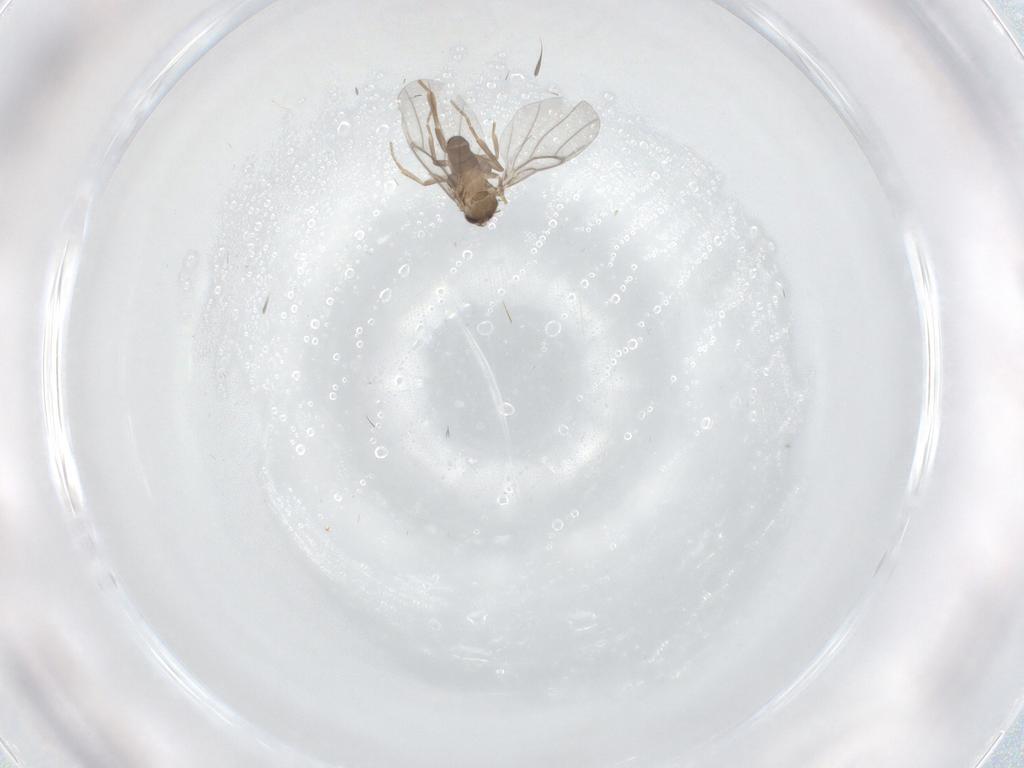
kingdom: Animalia
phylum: Arthropoda
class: Insecta
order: Diptera
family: Cecidomyiidae
